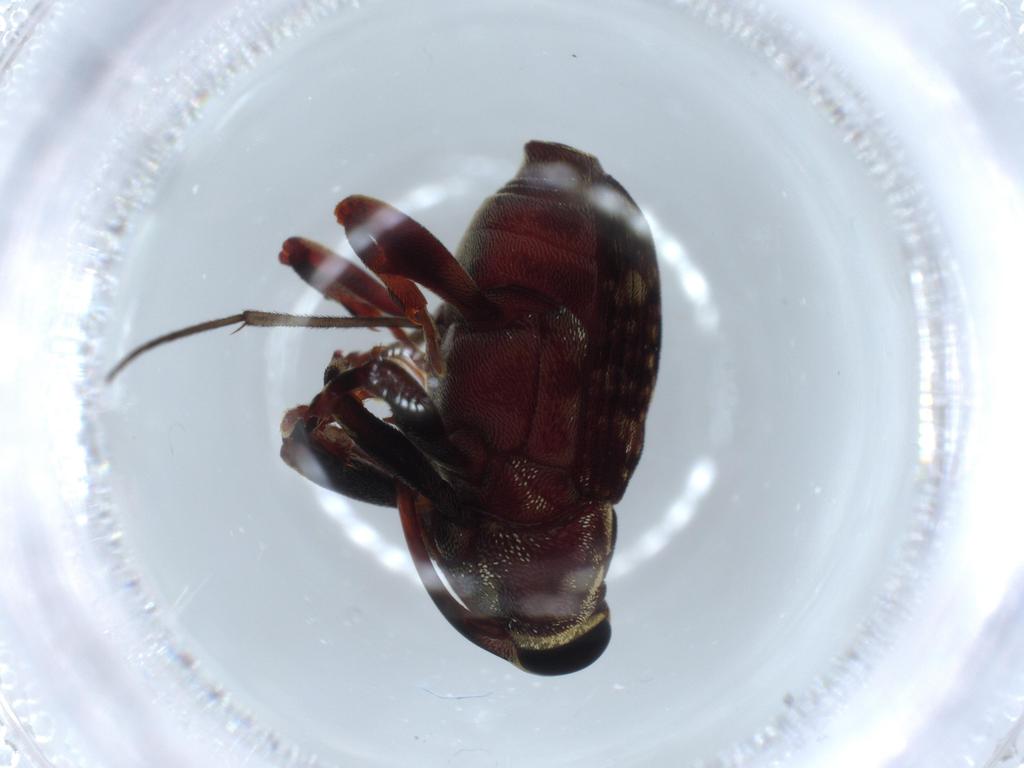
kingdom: Animalia
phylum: Arthropoda
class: Insecta
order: Coleoptera
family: Curculionidae
